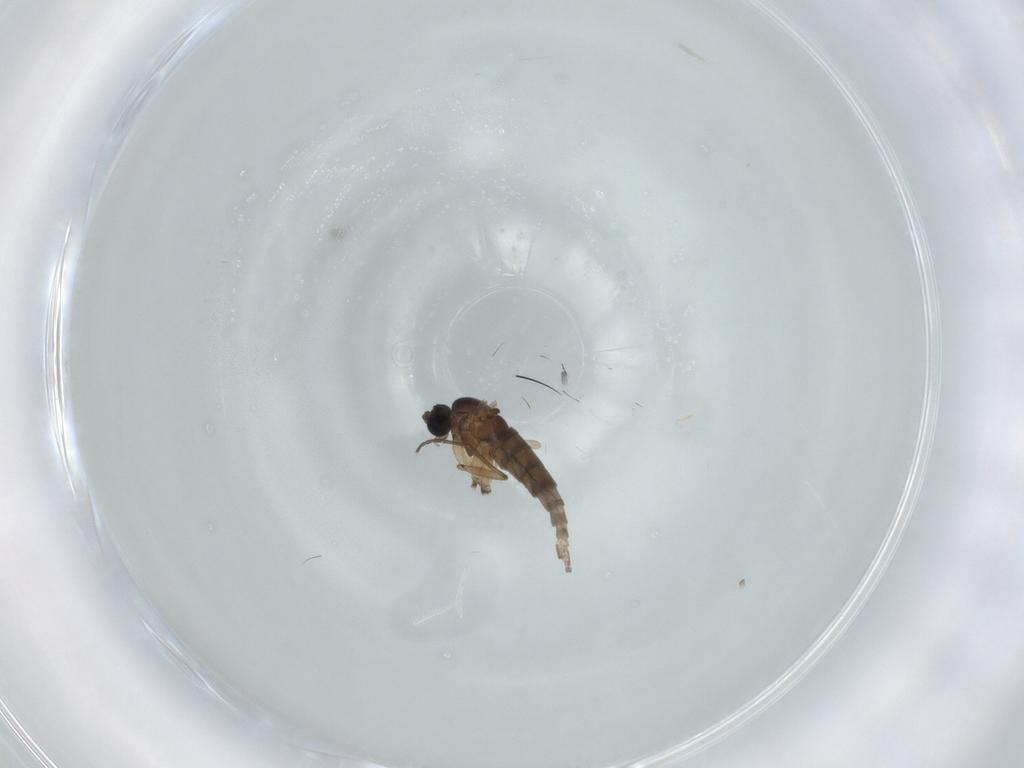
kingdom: Animalia
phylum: Arthropoda
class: Insecta
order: Diptera
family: Sciaridae
